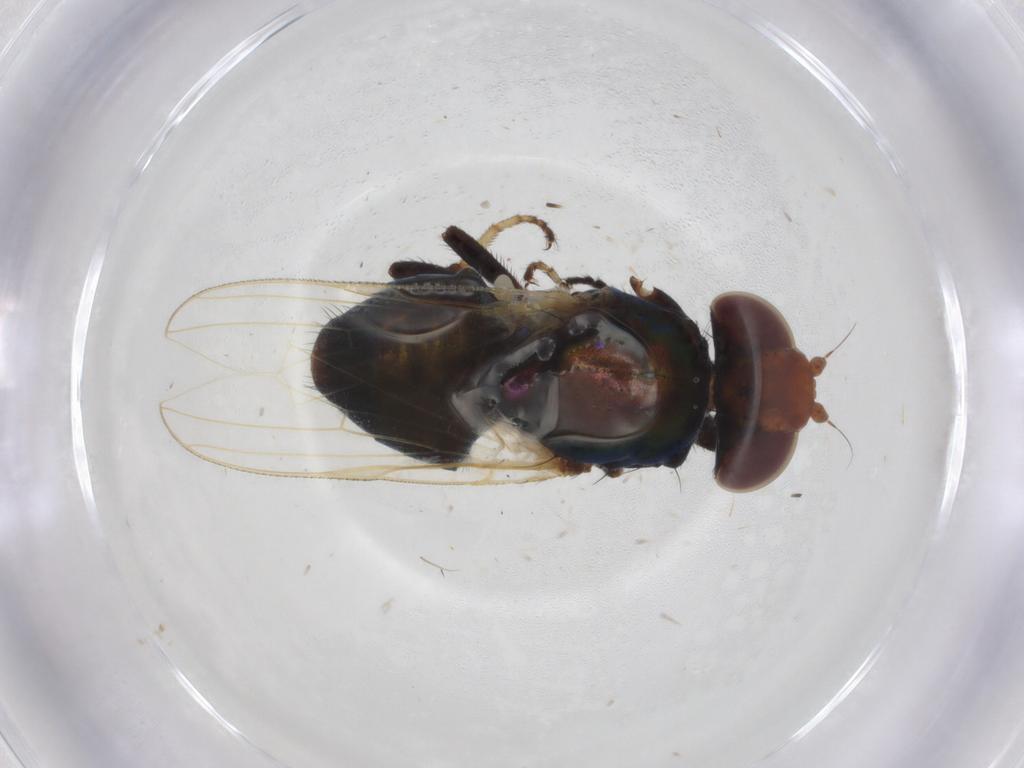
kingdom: Animalia
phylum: Arthropoda
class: Insecta
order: Diptera
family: Ulidiidae
